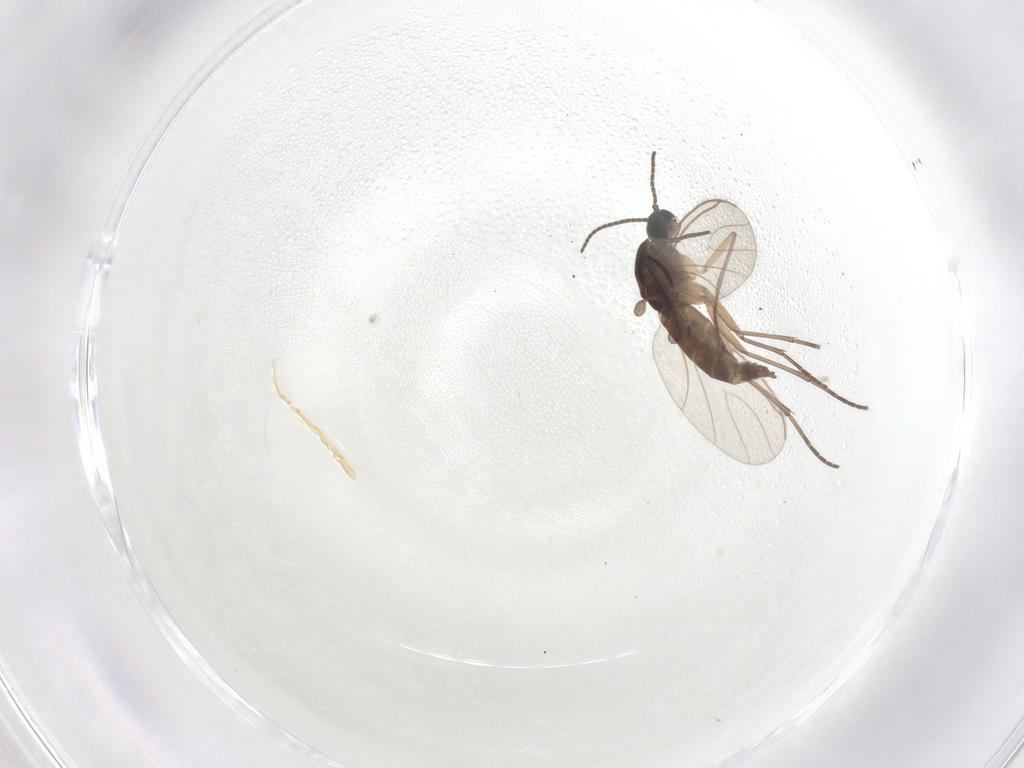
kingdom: Animalia
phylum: Arthropoda
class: Insecta
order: Diptera
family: Sciaridae
